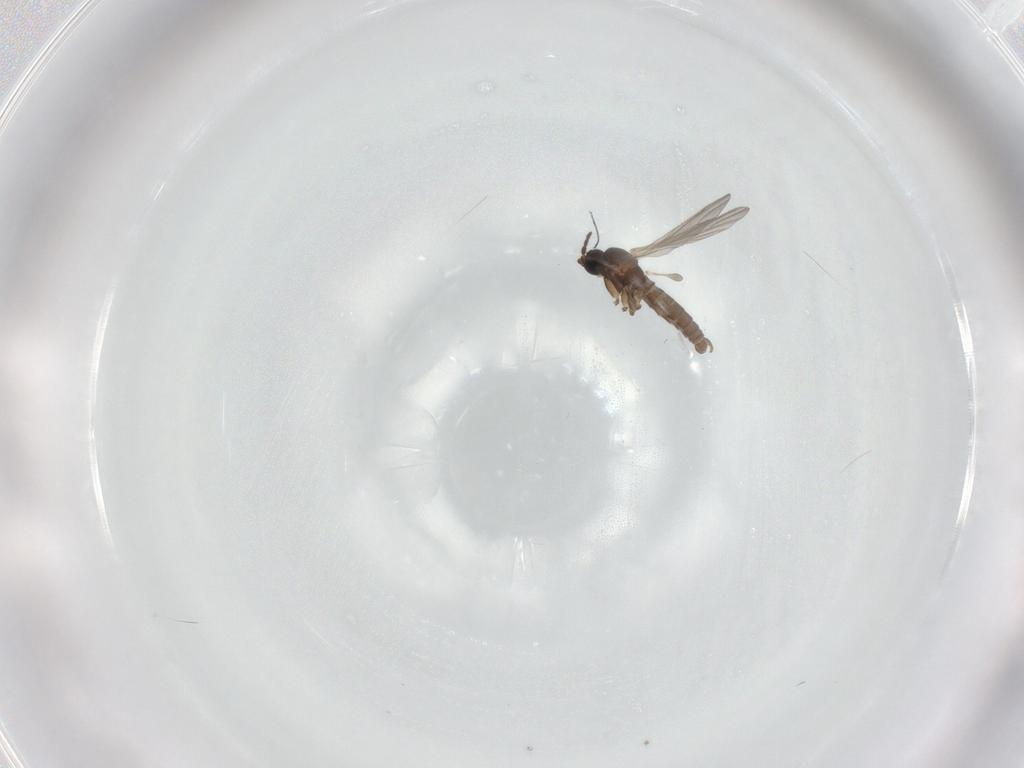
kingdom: Animalia
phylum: Arthropoda
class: Insecta
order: Diptera
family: Sciaridae
